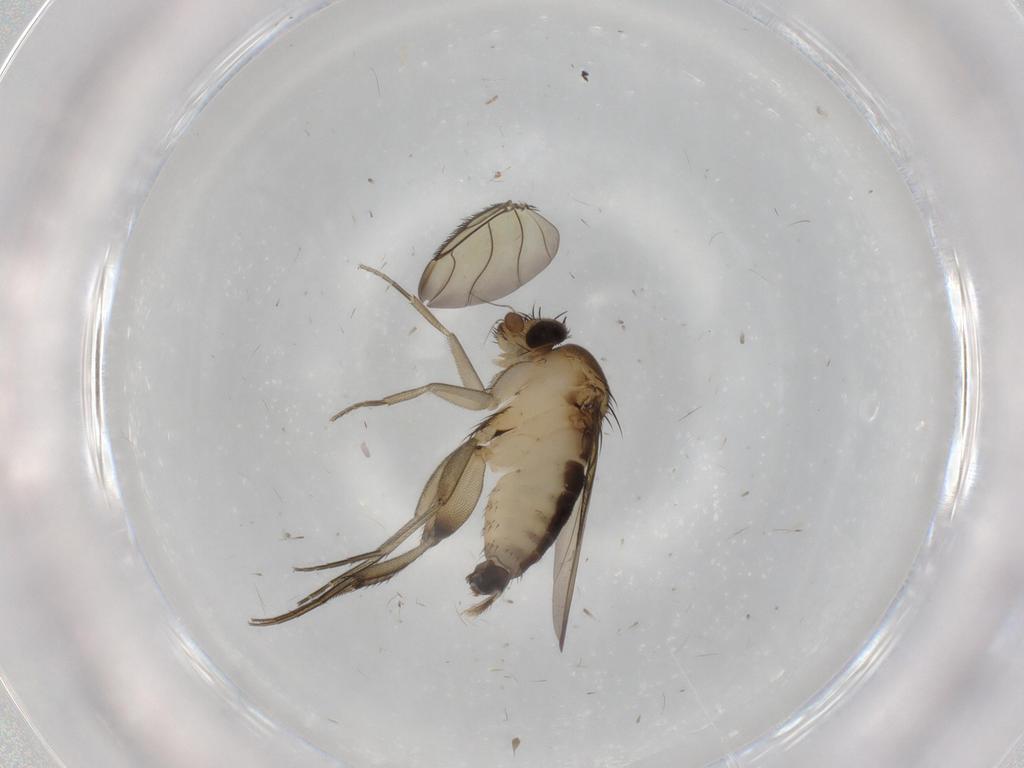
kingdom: Animalia
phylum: Arthropoda
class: Insecta
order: Diptera
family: Phoridae
